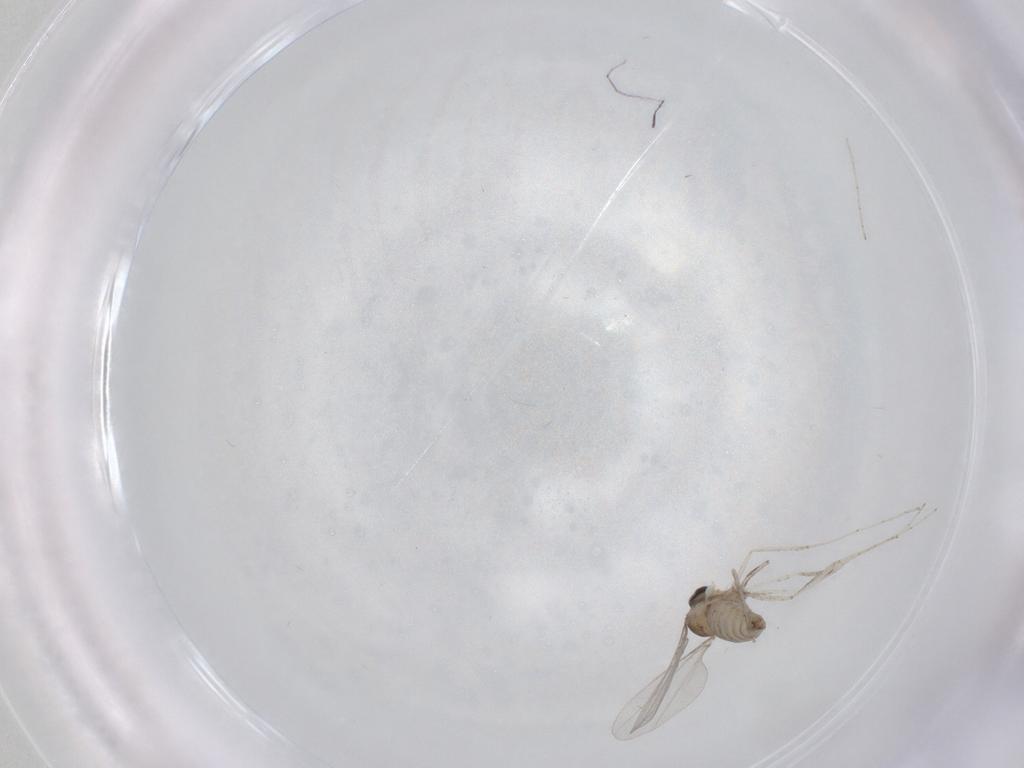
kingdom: Animalia
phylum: Arthropoda
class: Insecta
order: Diptera
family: Cecidomyiidae
